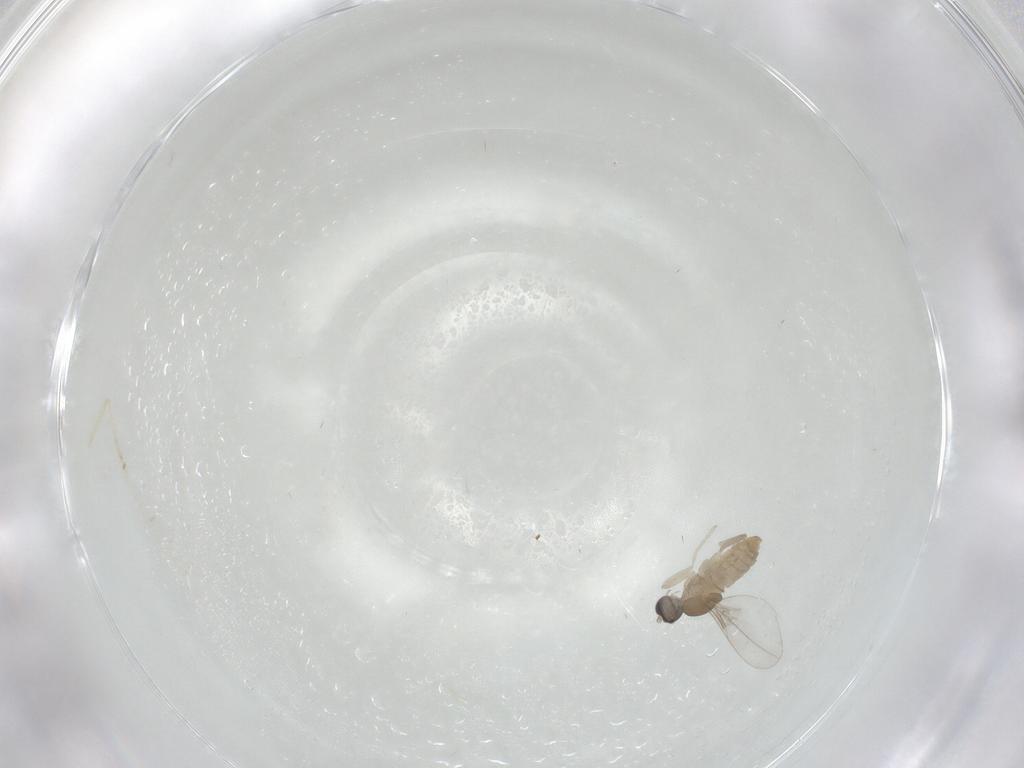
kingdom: Animalia
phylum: Arthropoda
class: Insecta
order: Diptera
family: Cecidomyiidae
